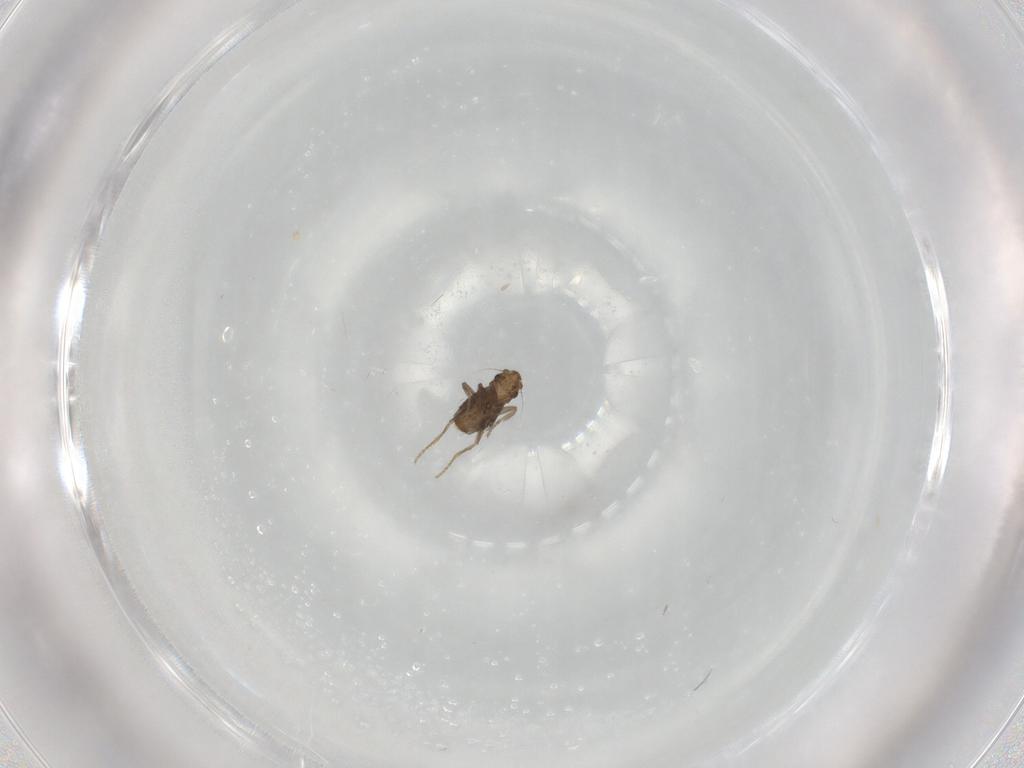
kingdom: Animalia
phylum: Arthropoda
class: Insecta
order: Diptera
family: Phoridae
